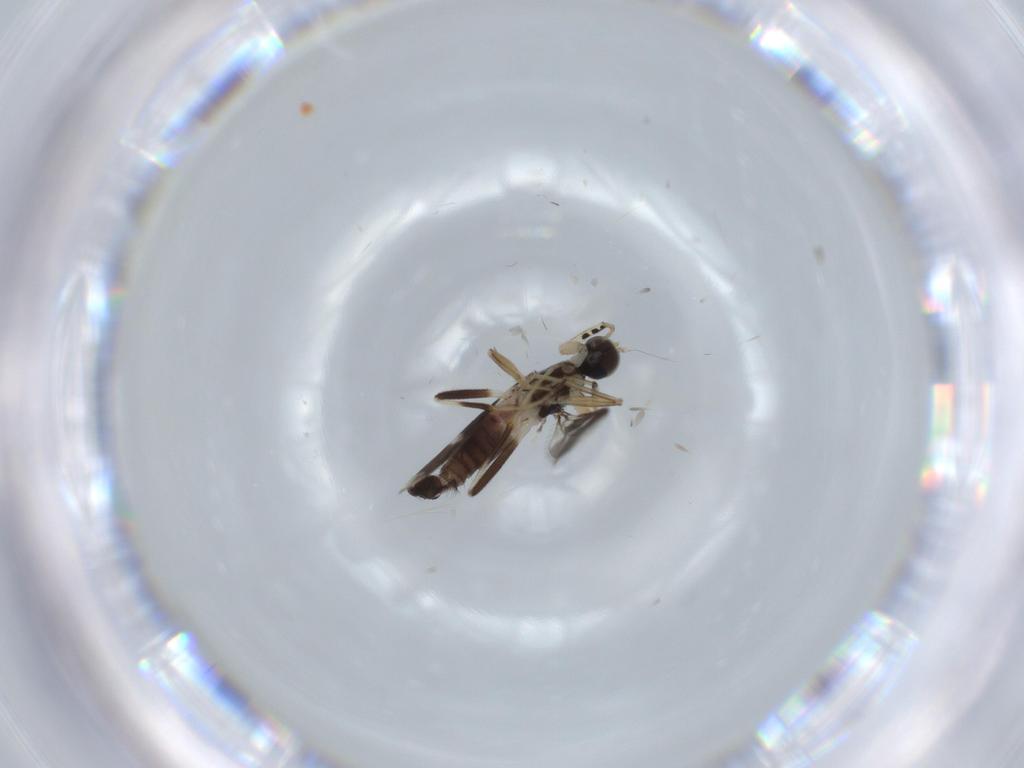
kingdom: Animalia
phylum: Arthropoda
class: Insecta
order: Diptera
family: Hybotidae
